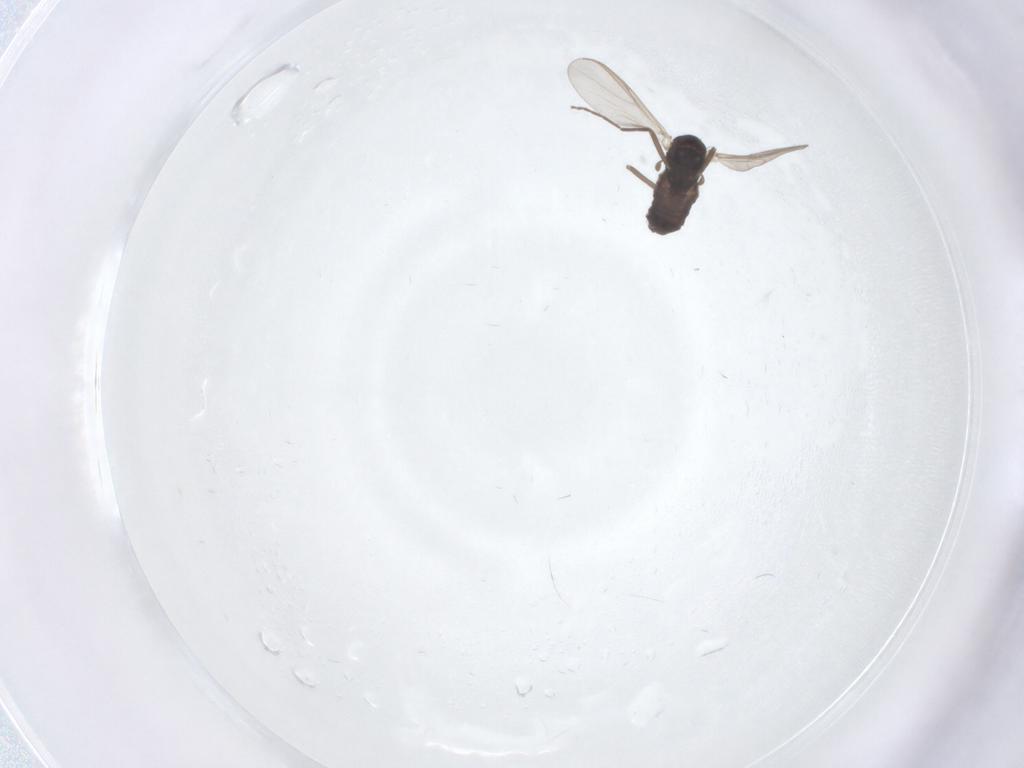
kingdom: Animalia
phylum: Arthropoda
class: Insecta
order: Diptera
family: Chironomidae
